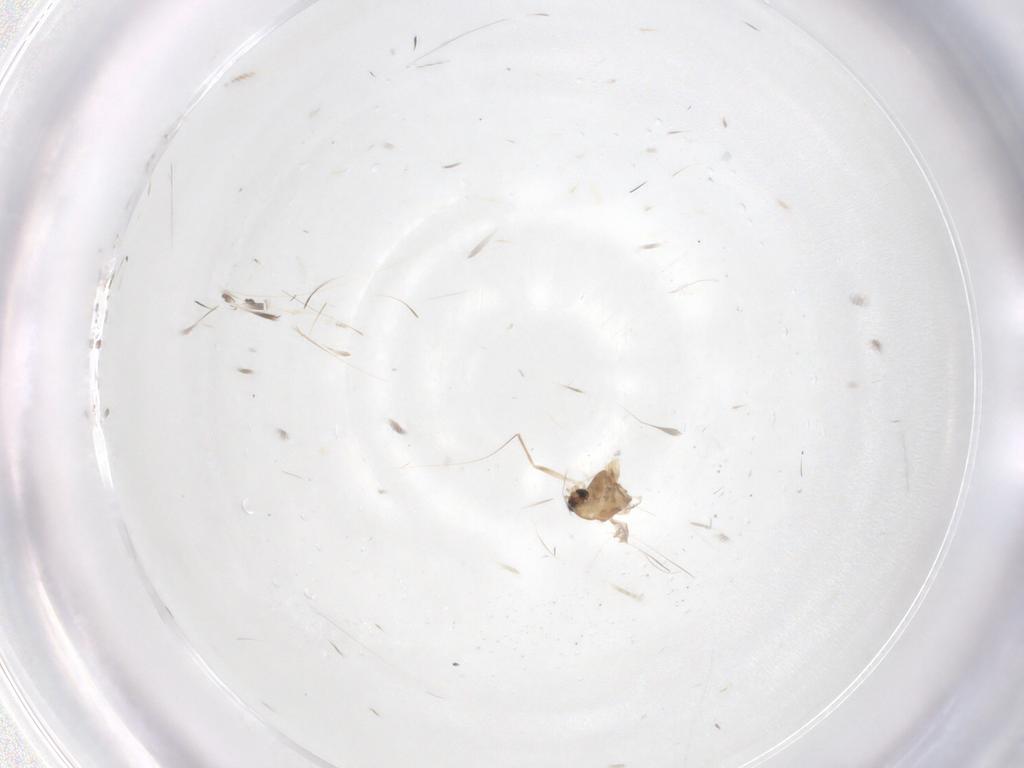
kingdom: Animalia
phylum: Arthropoda
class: Insecta
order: Diptera
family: Chironomidae
